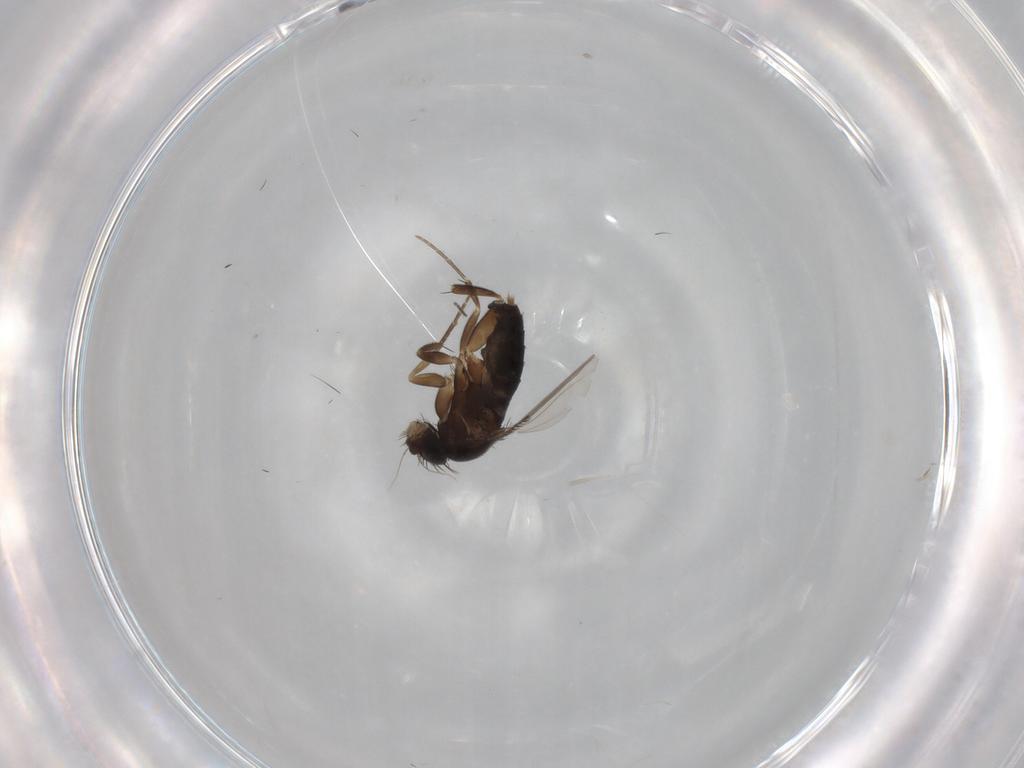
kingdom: Animalia
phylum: Arthropoda
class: Insecta
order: Diptera
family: Phoridae
